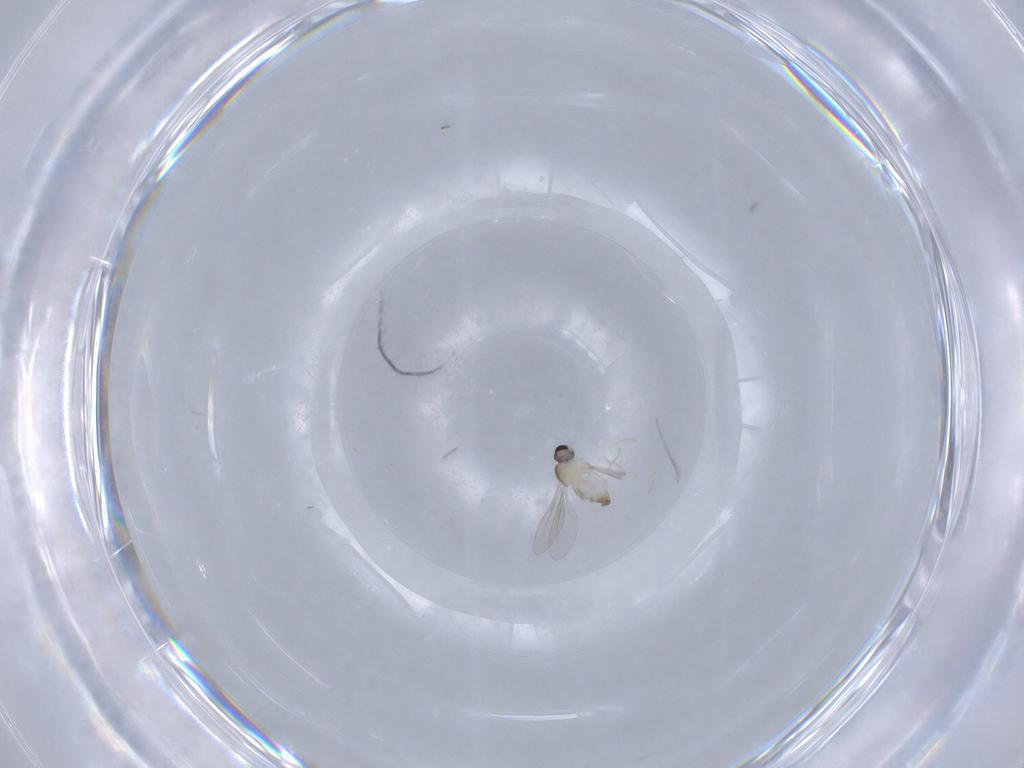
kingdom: Animalia
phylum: Arthropoda
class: Insecta
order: Diptera
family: Cecidomyiidae
